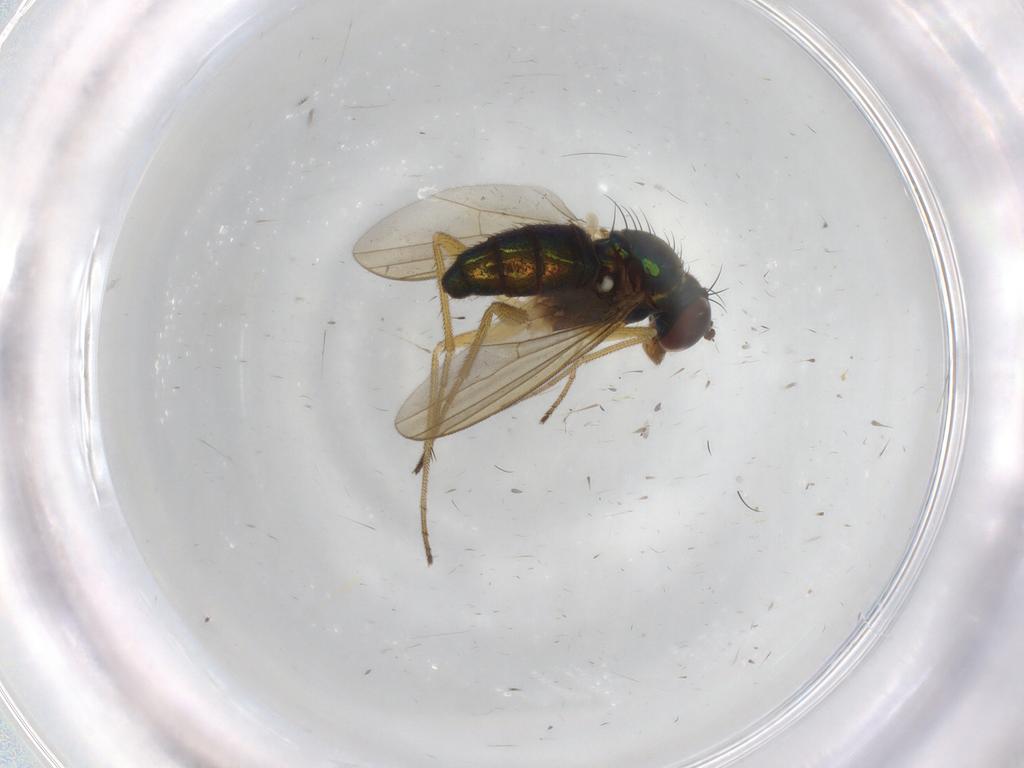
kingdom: Animalia
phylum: Arthropoda
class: Insecta
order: Diptera
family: Dolichopodidae
